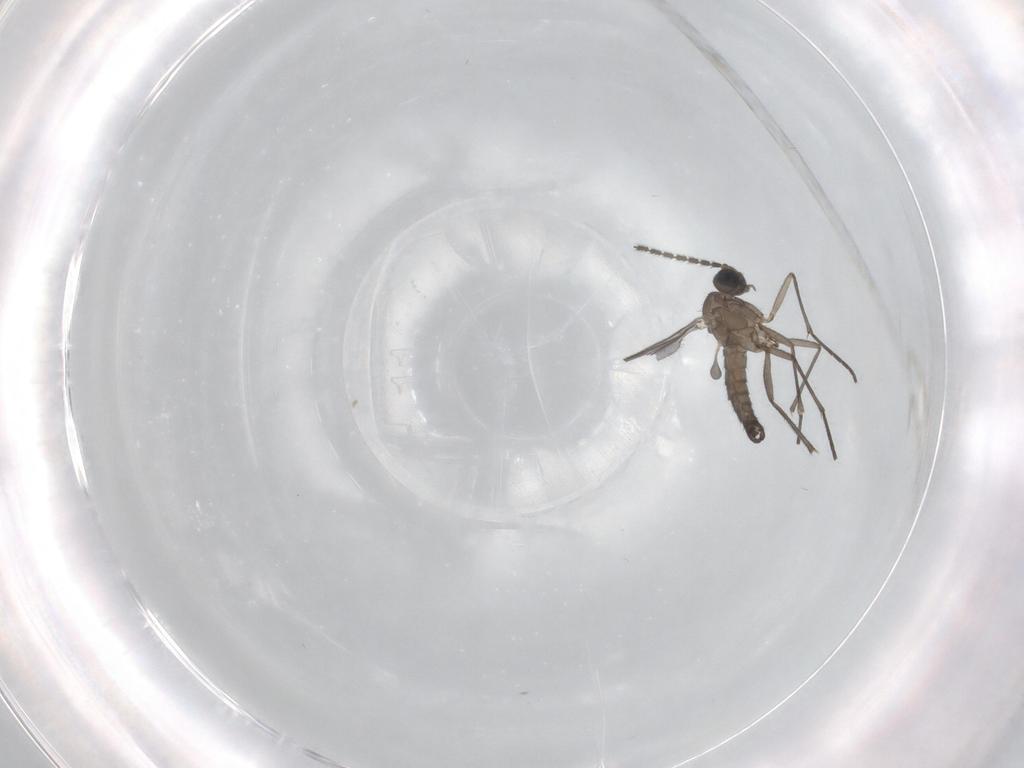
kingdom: Animalia
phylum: Arthropoda
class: Insecta
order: Diptera
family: Sciaridae
